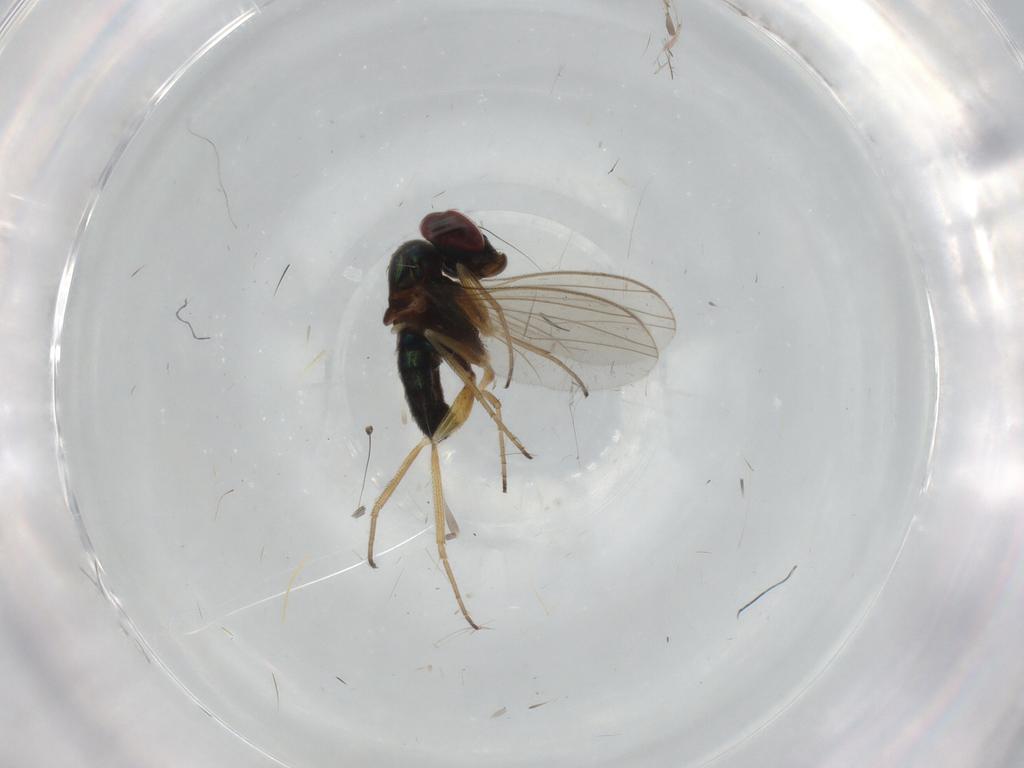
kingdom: Animalia
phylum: Arthropoda
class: Insecta
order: Diptera
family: Dolichopodidae
